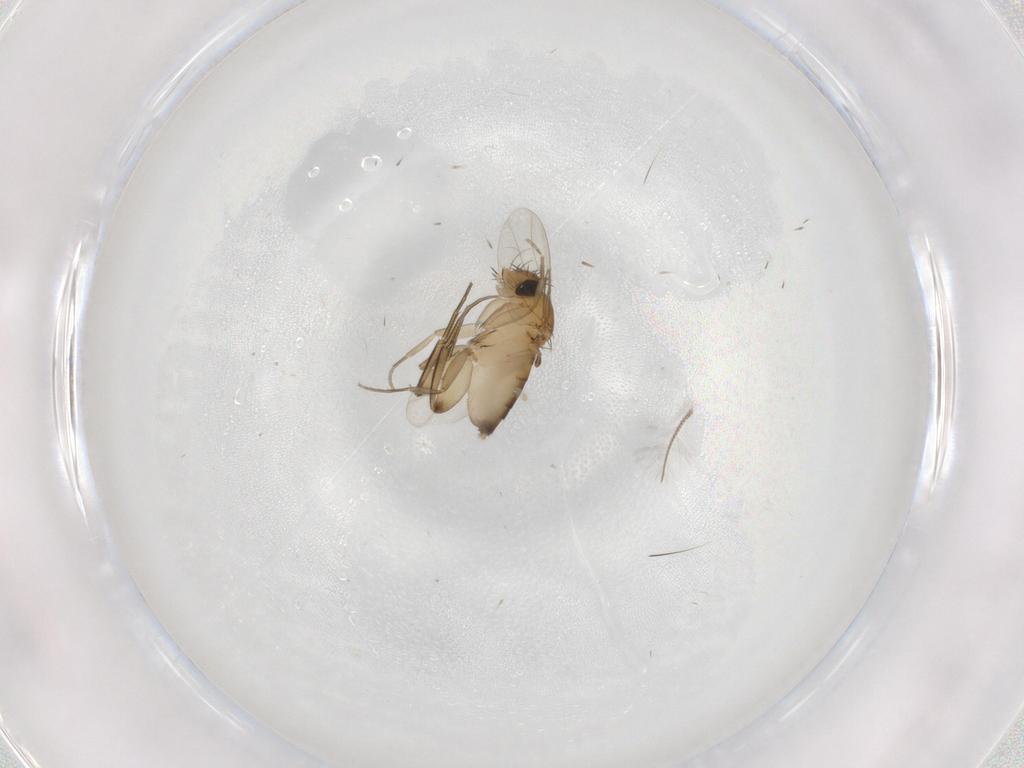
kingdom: Animalia
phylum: Arthropoda
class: Insecta
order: Diptera
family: Phoridae
